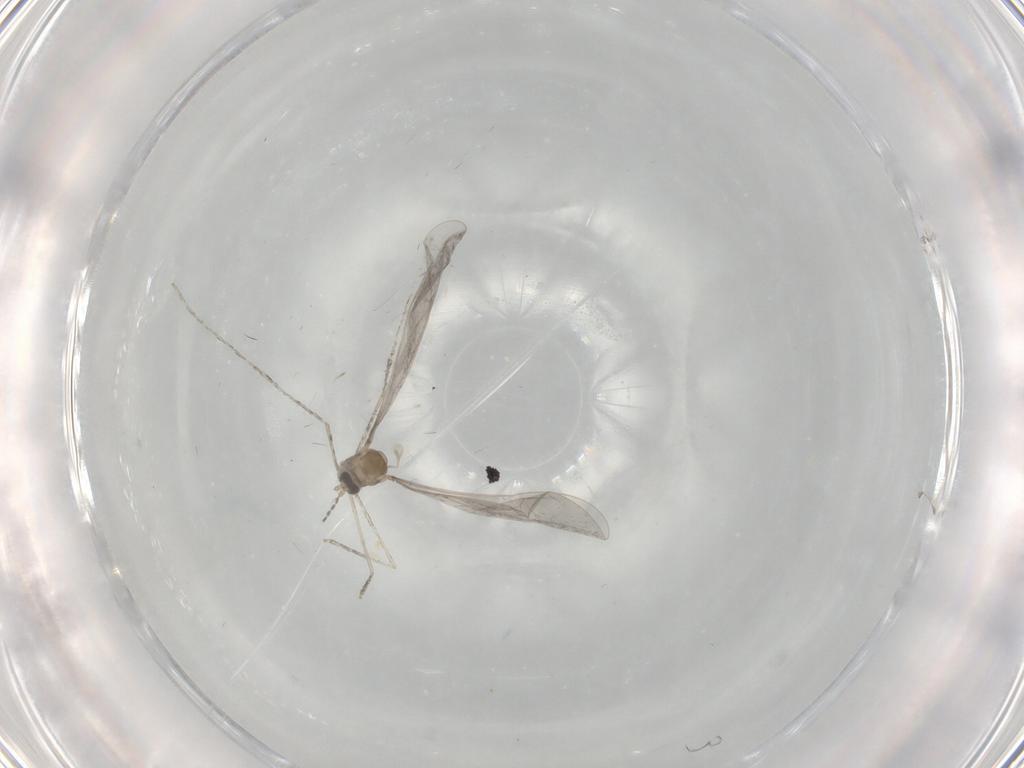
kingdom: Animalia
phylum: Arthropoda
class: Insecta
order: Diptera
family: Cecidomyiidae
